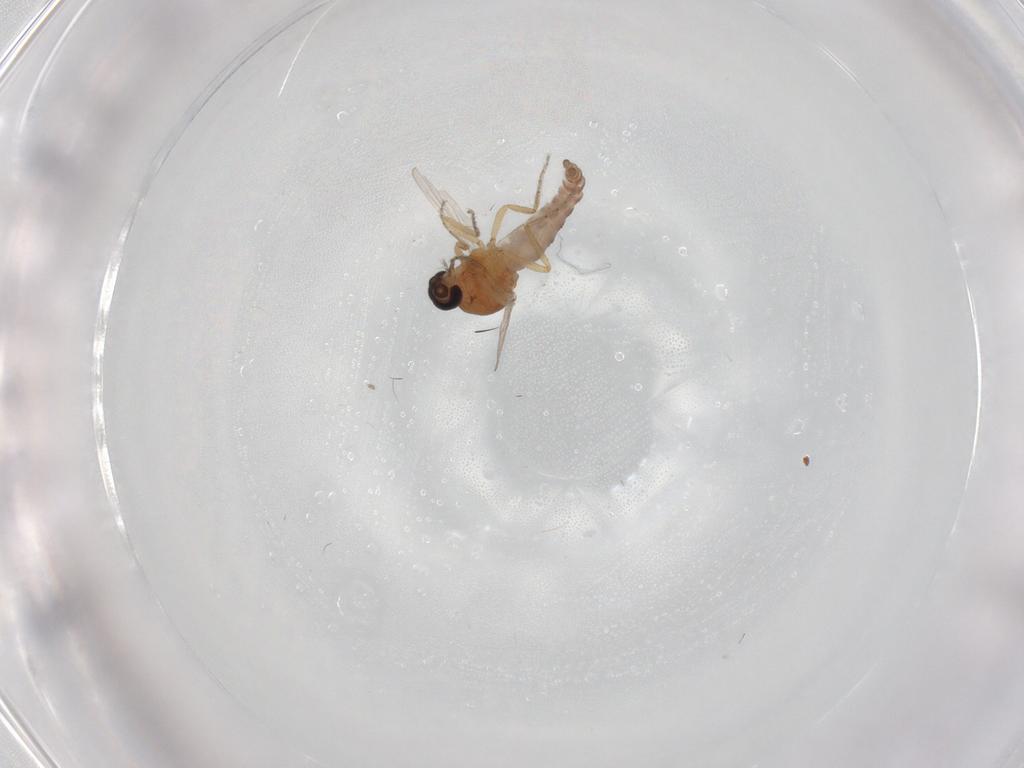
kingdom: Animalia
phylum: Arthropoda
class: Insecta
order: Diptera
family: Ceratopogonidae
